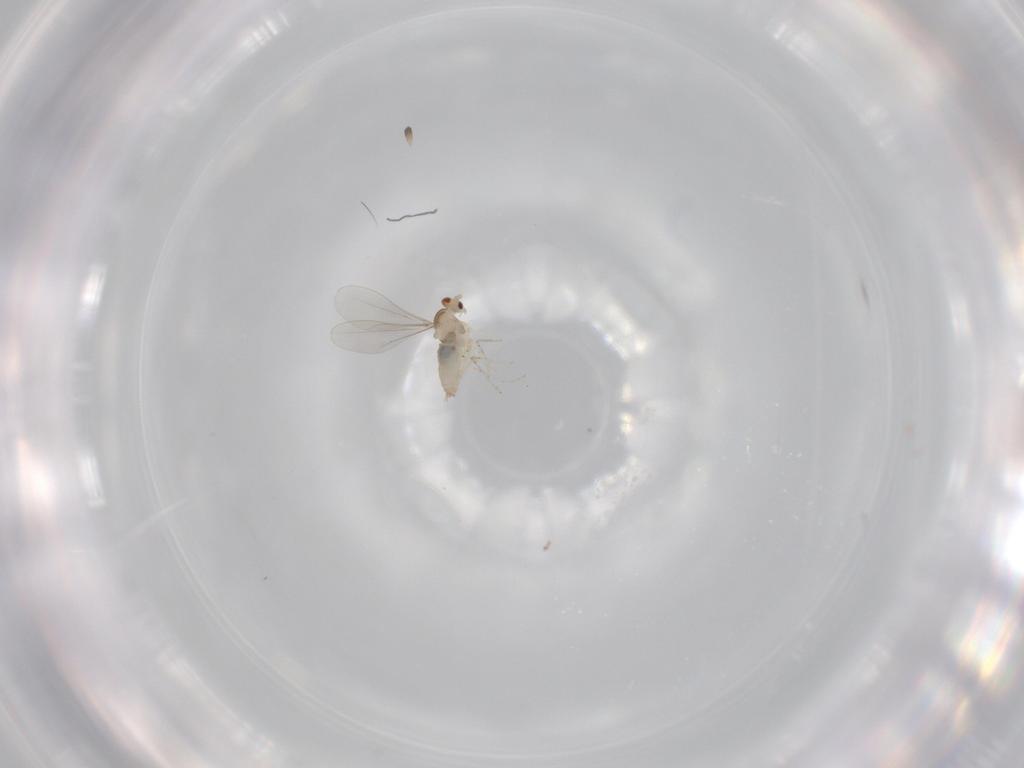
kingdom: Animalia
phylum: Arthropoda
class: Insecta
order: Diptera
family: Cecidomyiidae
